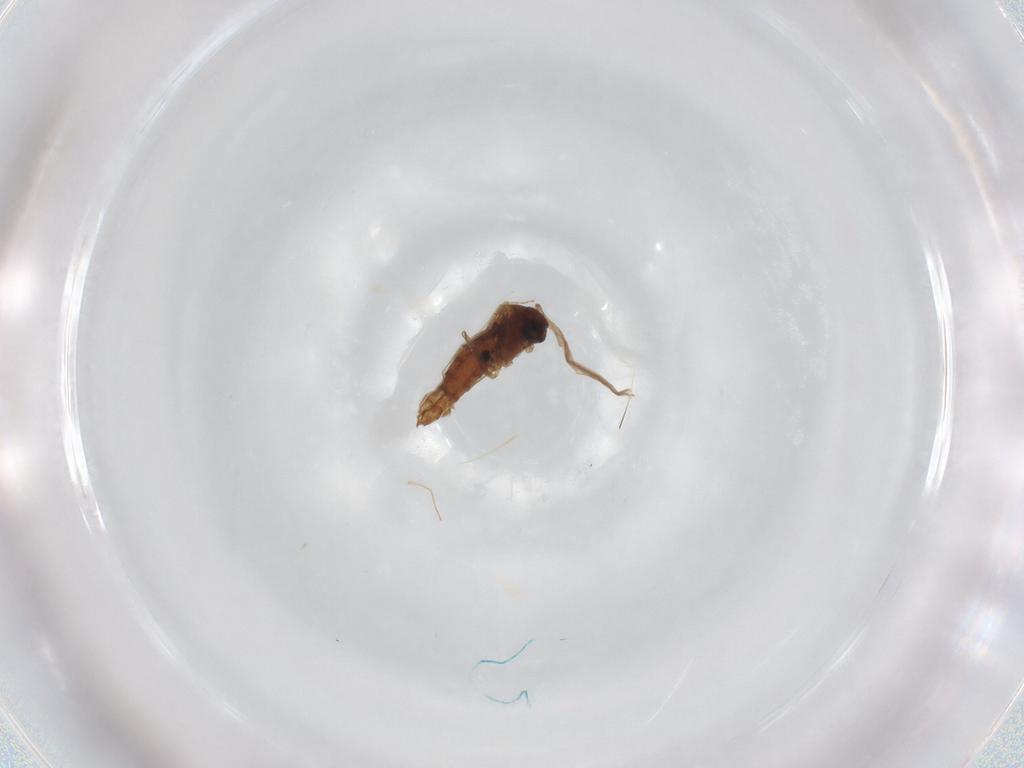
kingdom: Animalia
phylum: Arthropoda
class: Insecta
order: Diptera
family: Chironomidae
